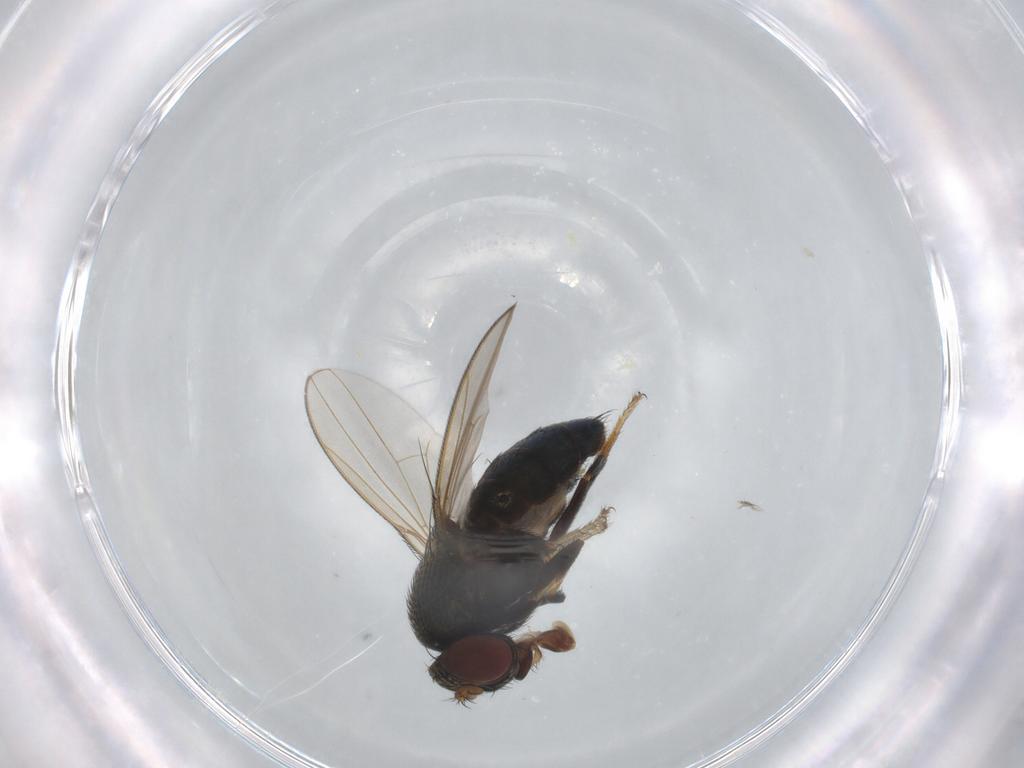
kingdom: Animalia
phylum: Arthropoda
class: Insecta
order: Diptera
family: Ephydridae
